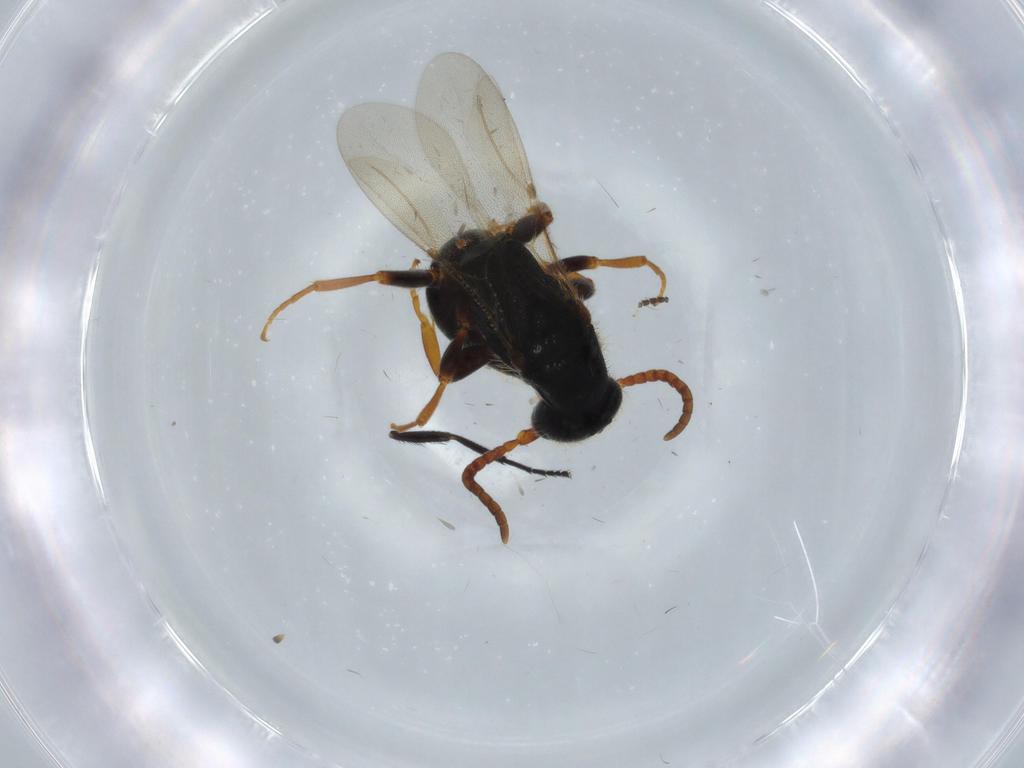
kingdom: Animalia
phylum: Arthropoda
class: Insecta
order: Hymenoptera
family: Bethylidae
